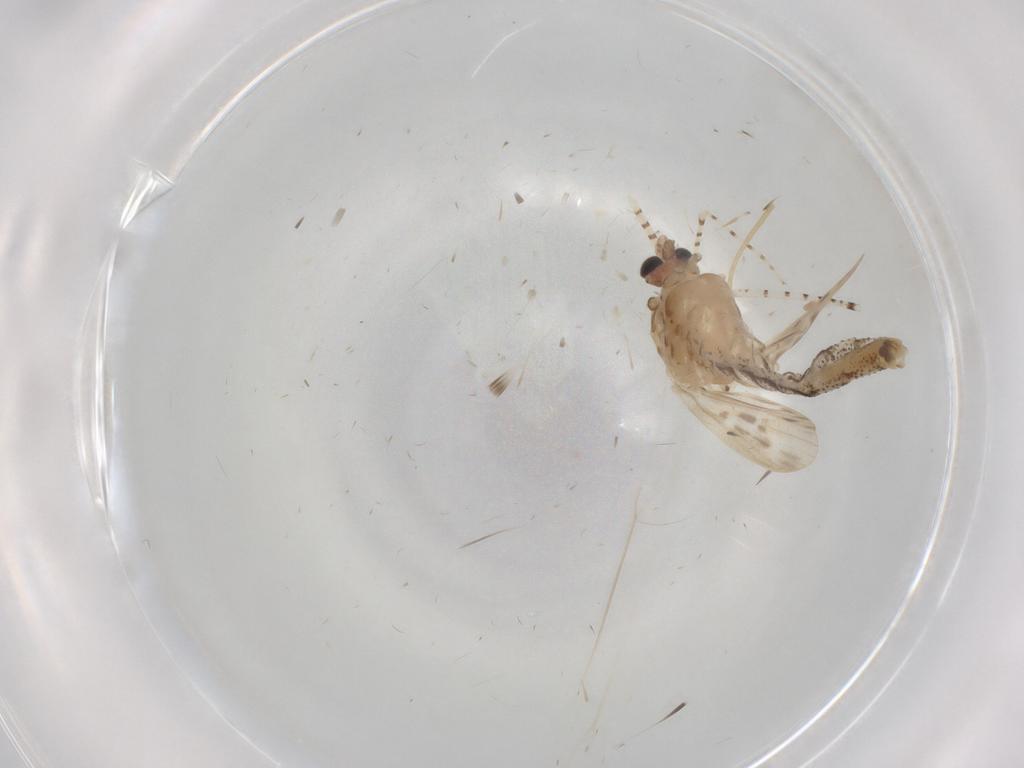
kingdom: Animalia
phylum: Arthropoda
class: Insecta
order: Diptera
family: Chaoboridae
